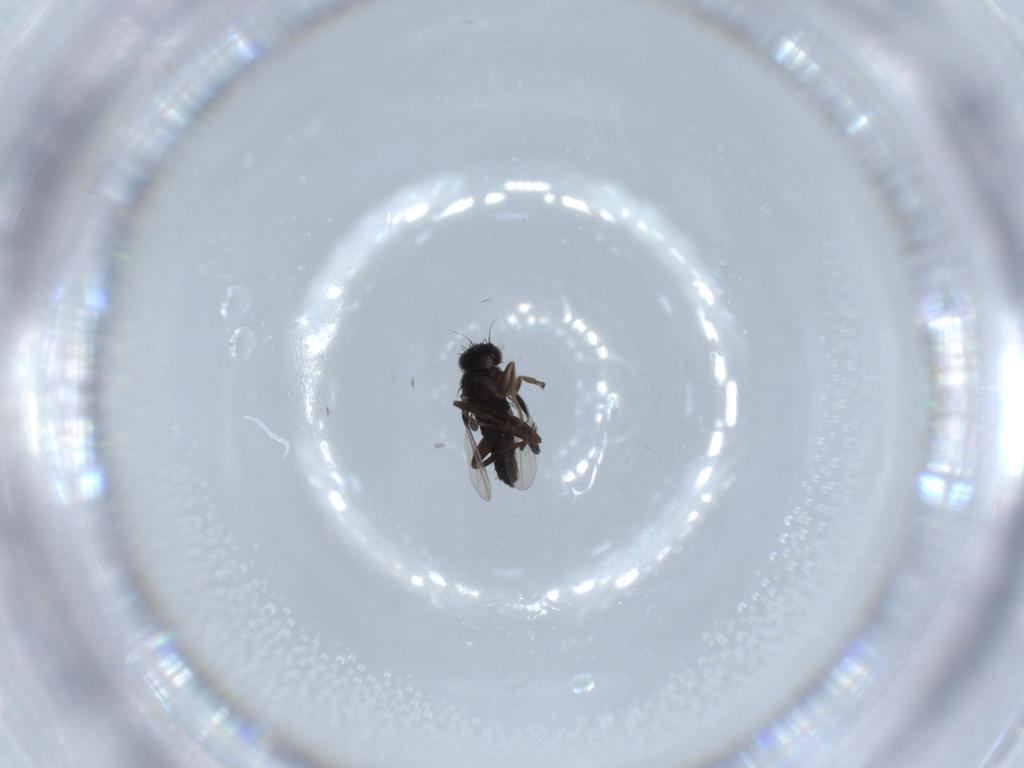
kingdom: Animalia
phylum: Arthropoda
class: Insecta
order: Diptera
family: Phoridae
